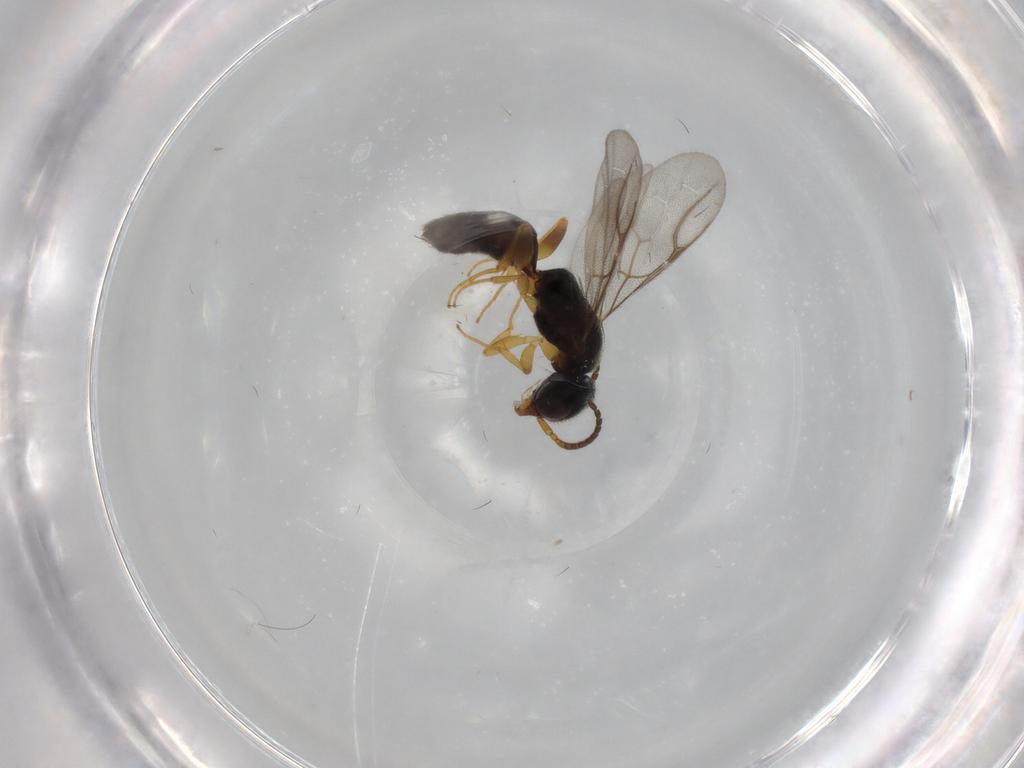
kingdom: Animalia
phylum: Arthropoda
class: Insecta
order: Hymenoptera
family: Bethylidae
